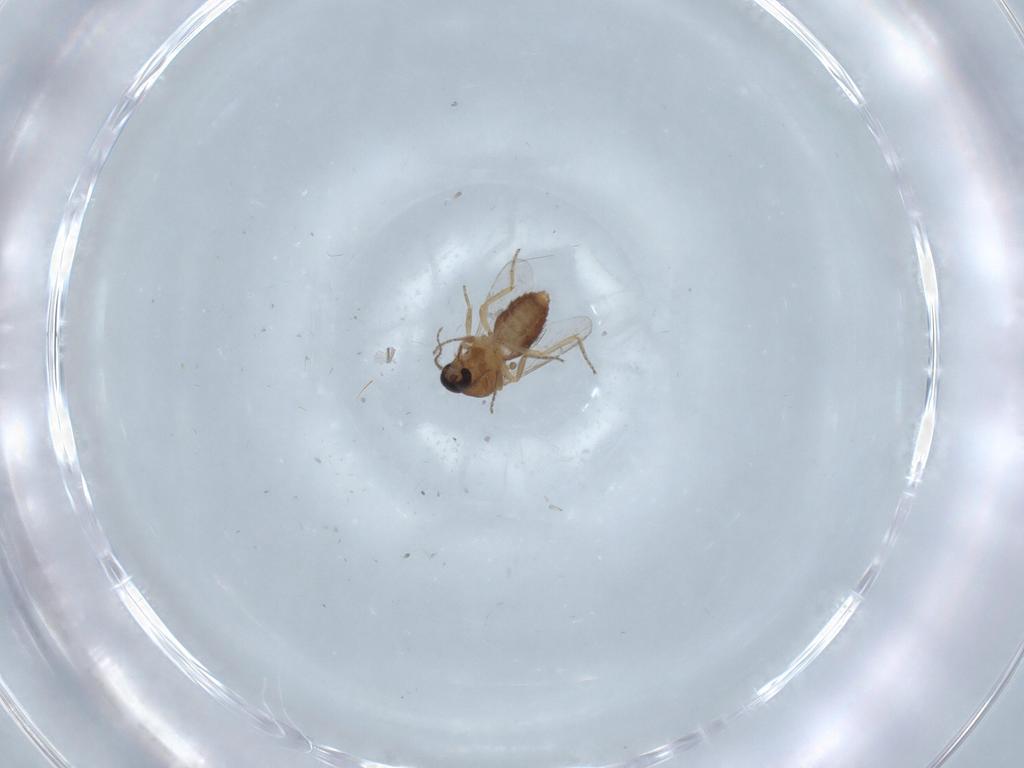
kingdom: Animalia
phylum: Arthropoda
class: Insecta
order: Diptera
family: Ceratopogonidae
